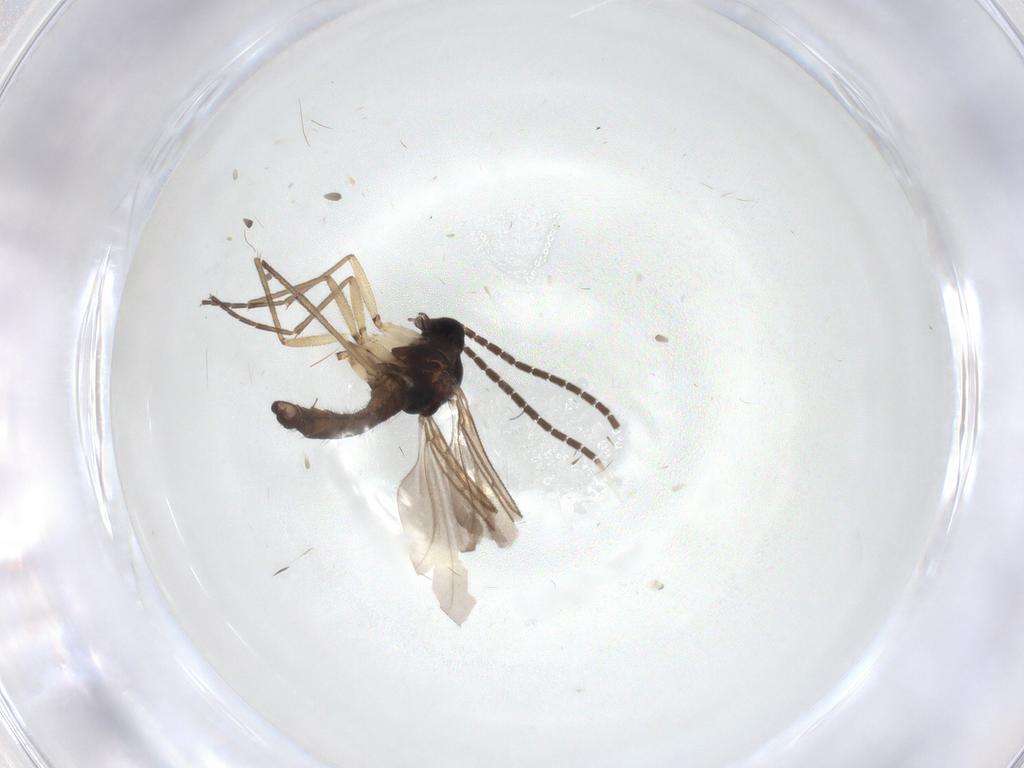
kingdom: Animalia
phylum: Arthropoda
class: Insecta
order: Diptera
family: Sciaridae
